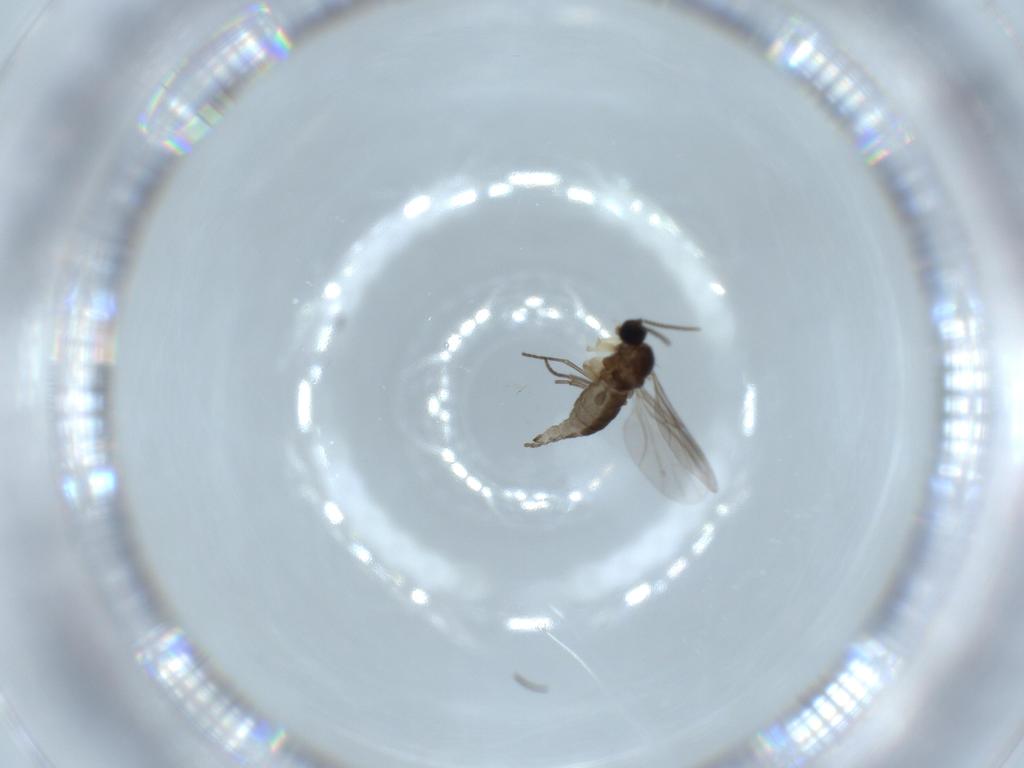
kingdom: Animalia
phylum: Arthropoda
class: Insecta
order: Diptera
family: Sciaridae
